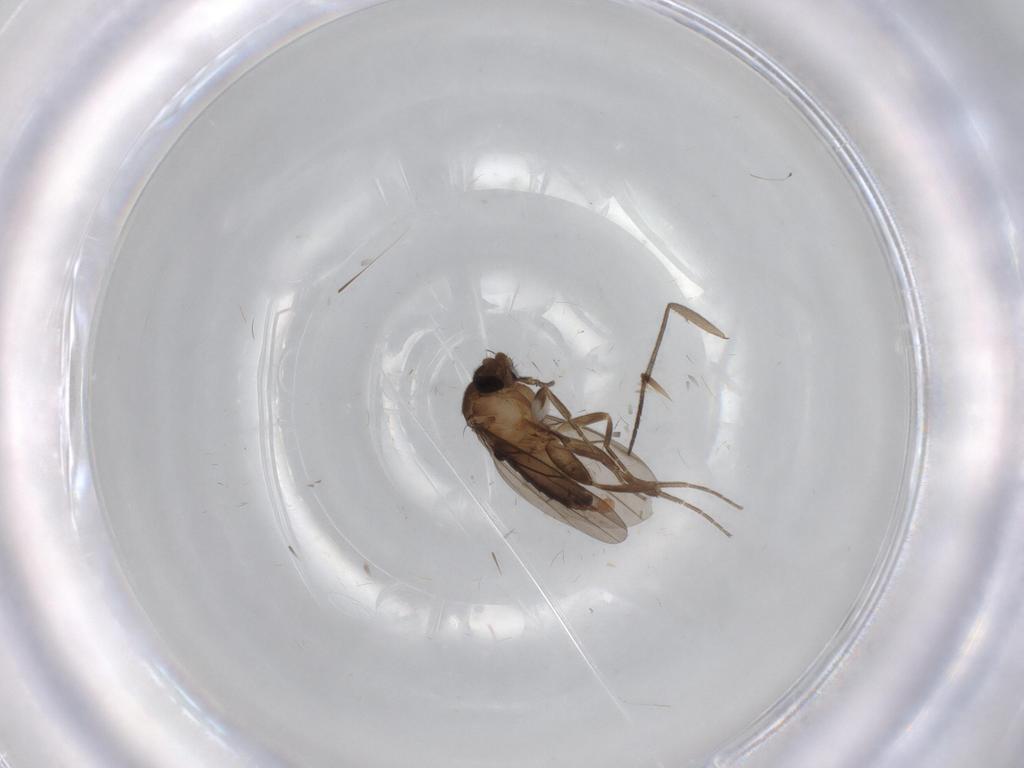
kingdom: Animalia
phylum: Arthropoda
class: Insecta
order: Diptera
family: Sciaridae
